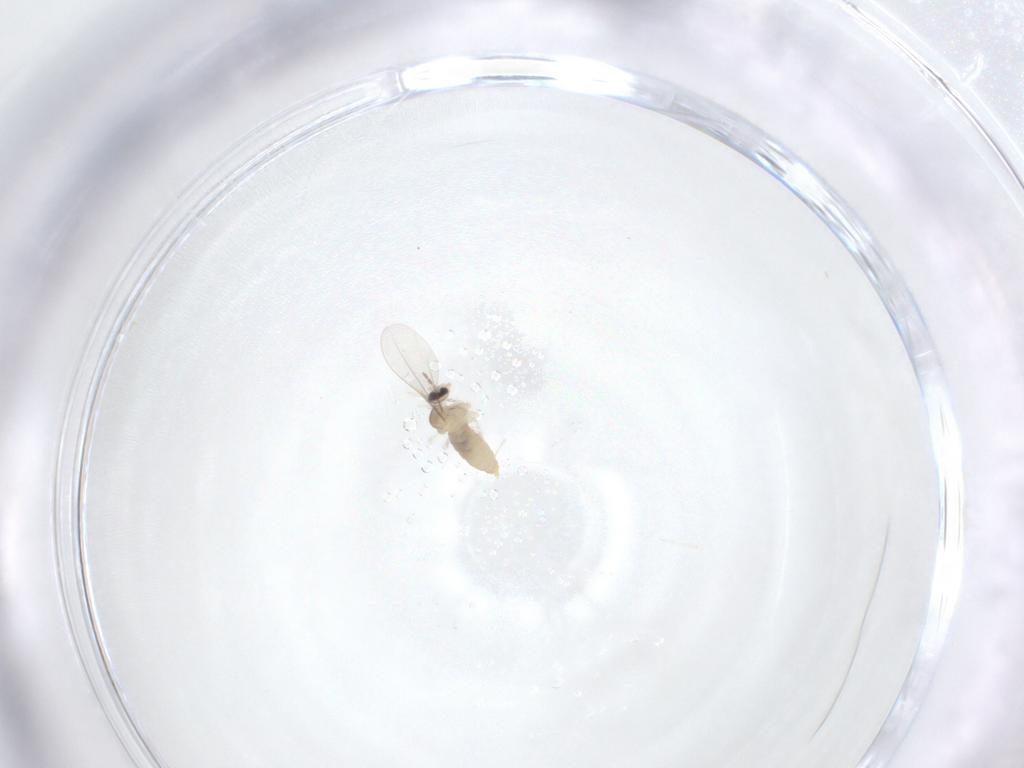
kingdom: Animalia
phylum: Arthropoda
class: Insecta
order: Diptera
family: Cecidomyiidae
